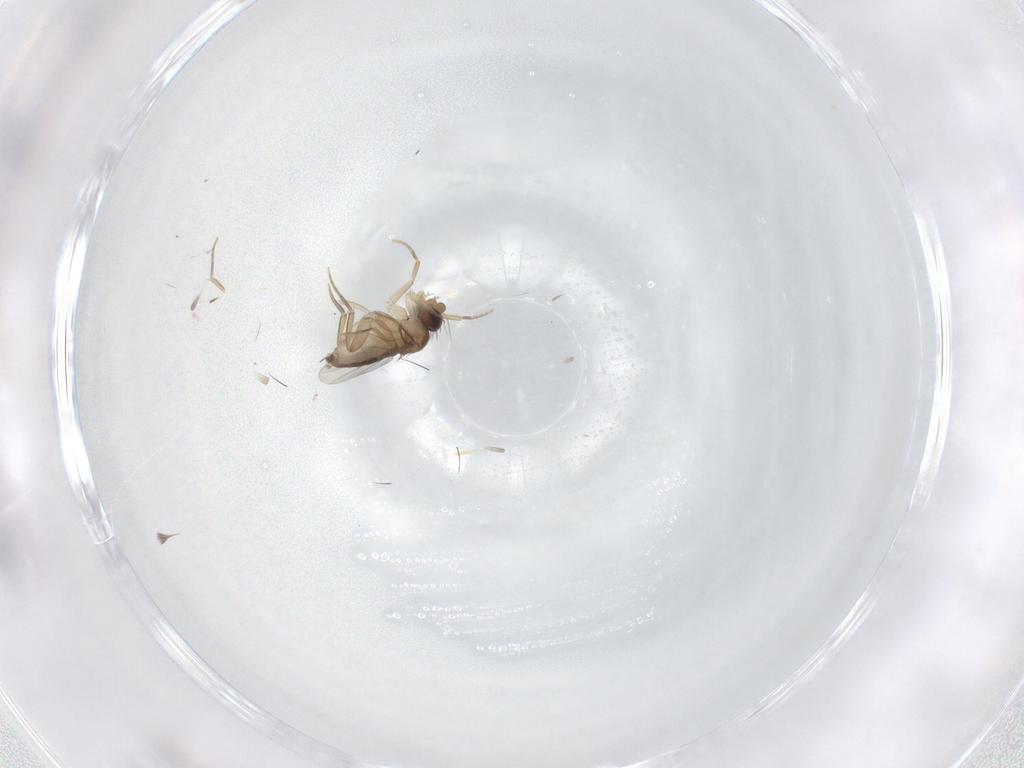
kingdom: Animalia
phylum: Arthropoda
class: Insecta
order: Diptera
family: Phoridae
